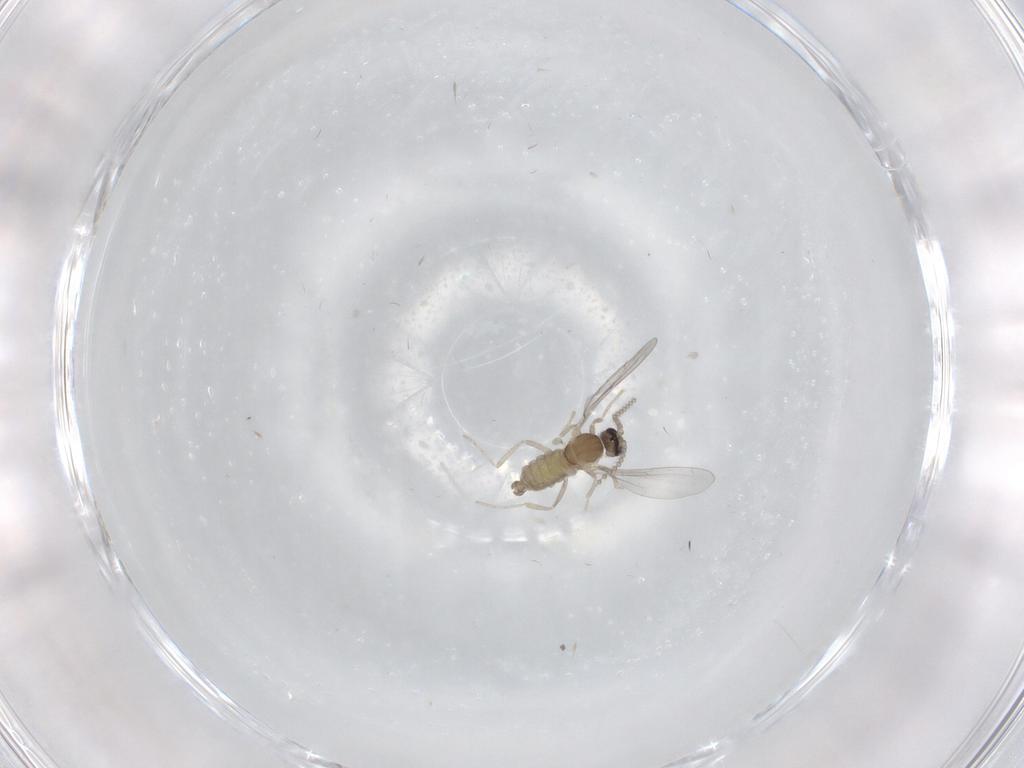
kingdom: Animalia
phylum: Arthropoda
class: Insecta
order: Diptera
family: Cecidomyiidae
